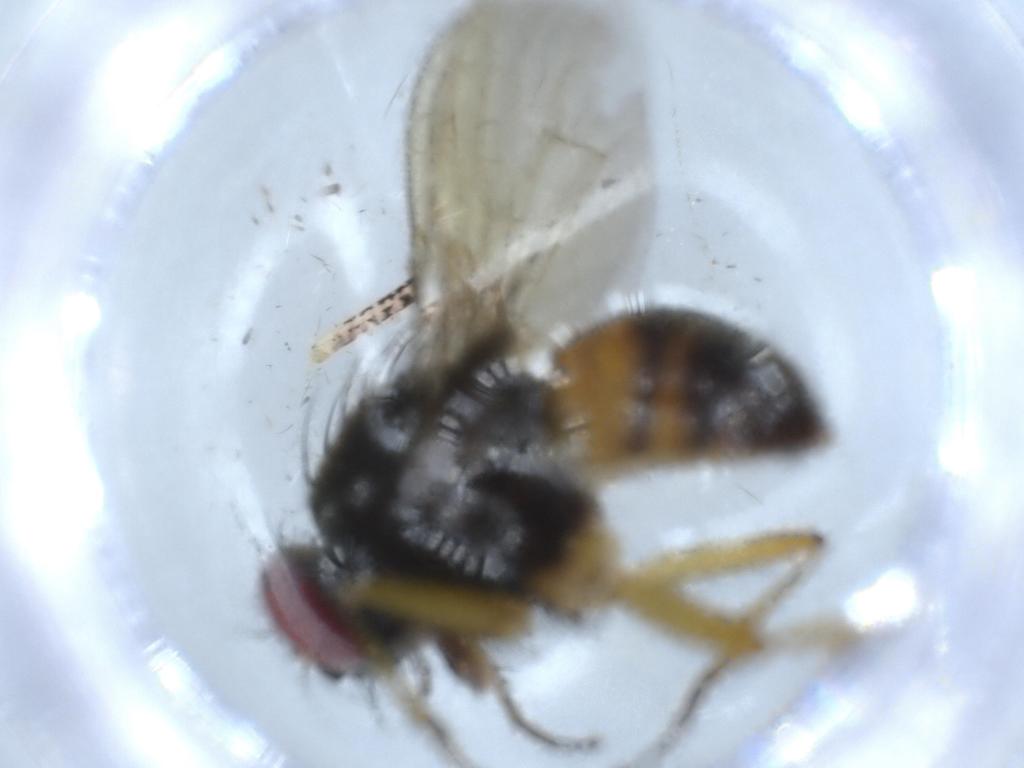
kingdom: Animalia
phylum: Arthropoda
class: Insecta
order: Diptera
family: Muscidae
